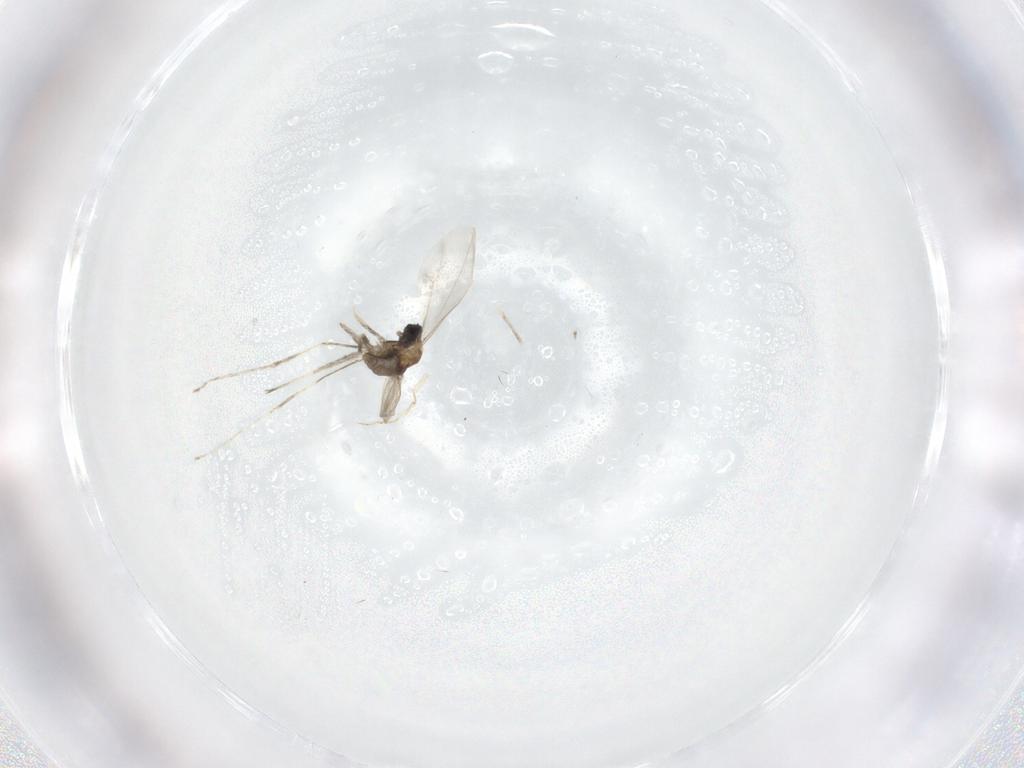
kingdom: Animalia
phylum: Arthropoda
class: Insecta
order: Diptera
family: Cecidomyiidae
